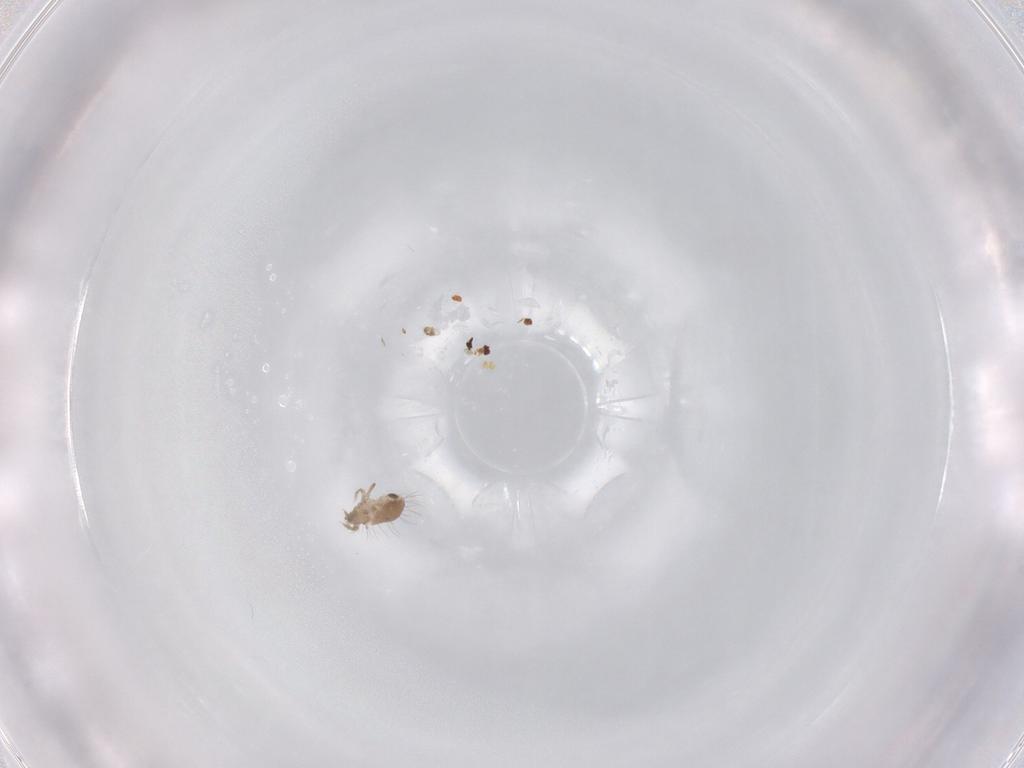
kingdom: Animalia
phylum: Arthropoda
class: Arachnida
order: Sarcoptiformes
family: Humerobatidae
